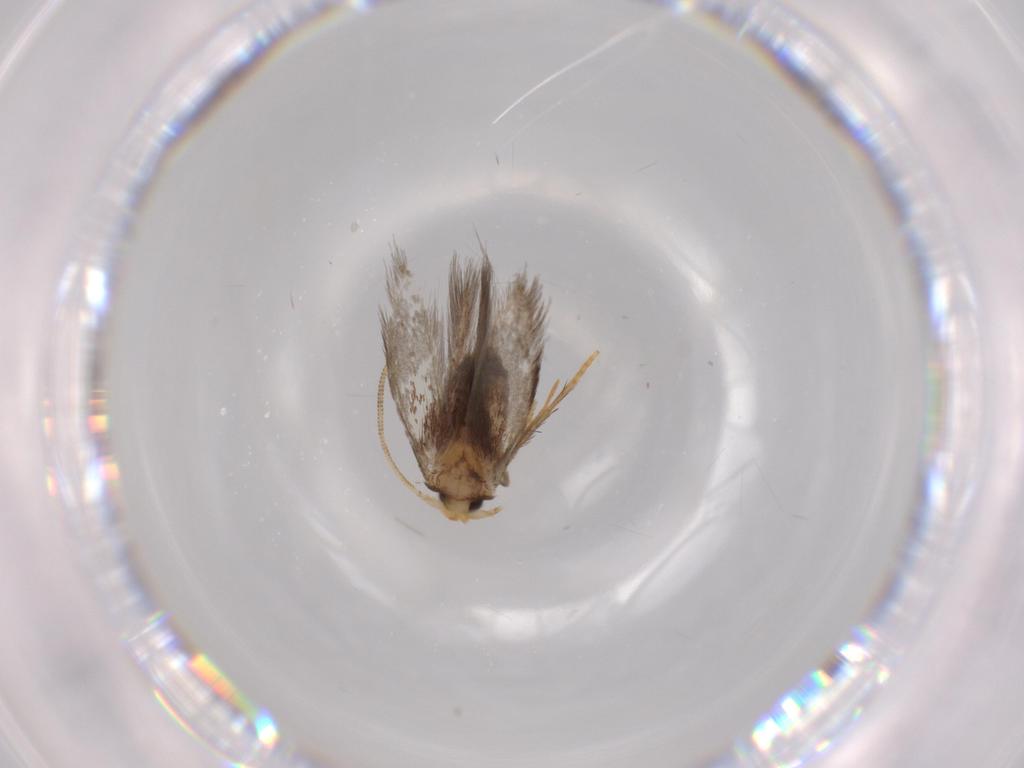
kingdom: Animalia
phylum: Arthropoda
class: Insecta
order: Lepidoptera
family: Nepticulidae
